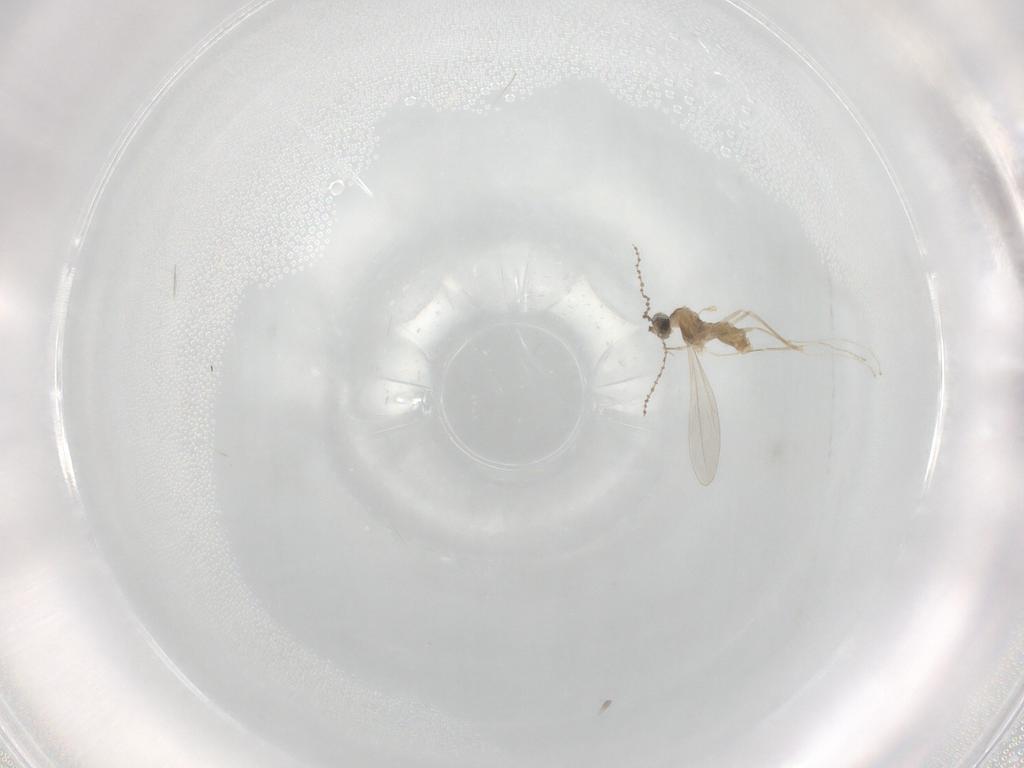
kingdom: Animalia
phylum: Arthropoda
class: Insecta
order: Diptera
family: Cecidomyiidae
